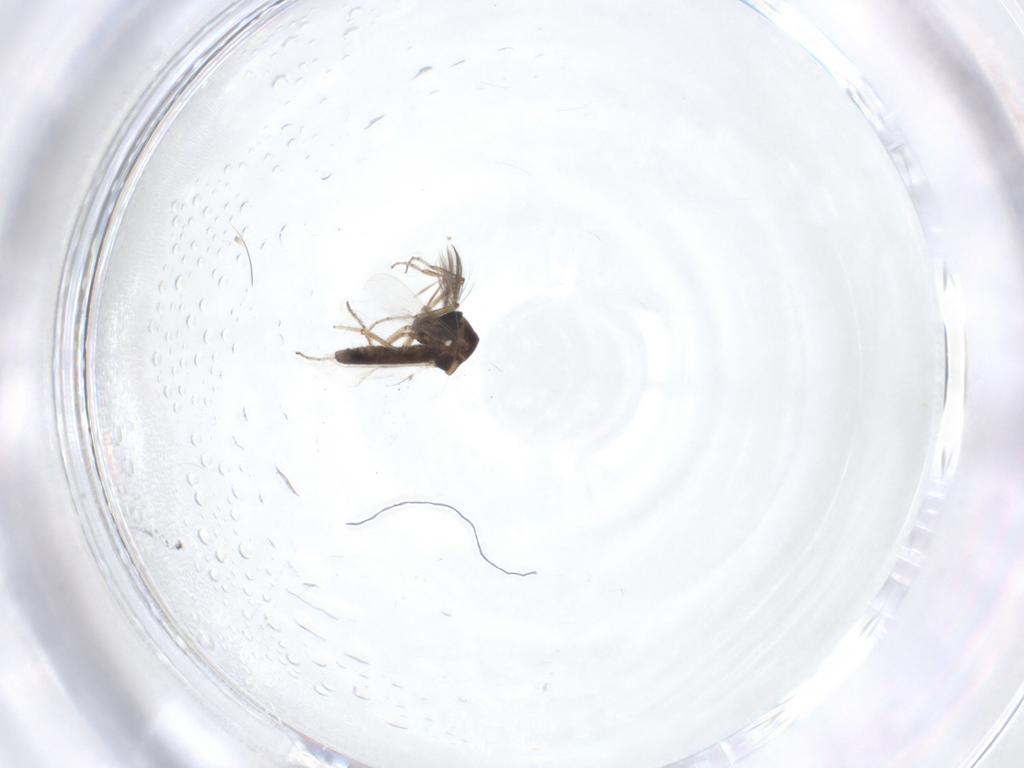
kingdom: Animalia
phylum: Arthropoda
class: Insecta
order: Diptera
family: Ceratopogonidae
